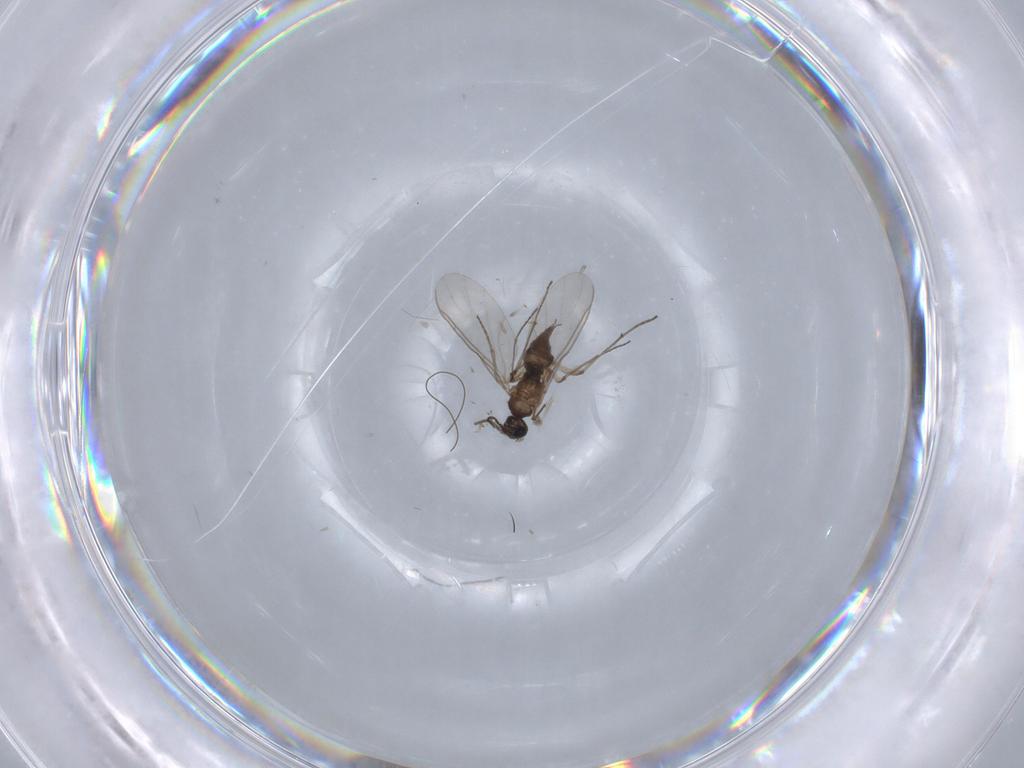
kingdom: Animalia
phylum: Arthropoda
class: Insecta
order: Diptera
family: Sciaridae
